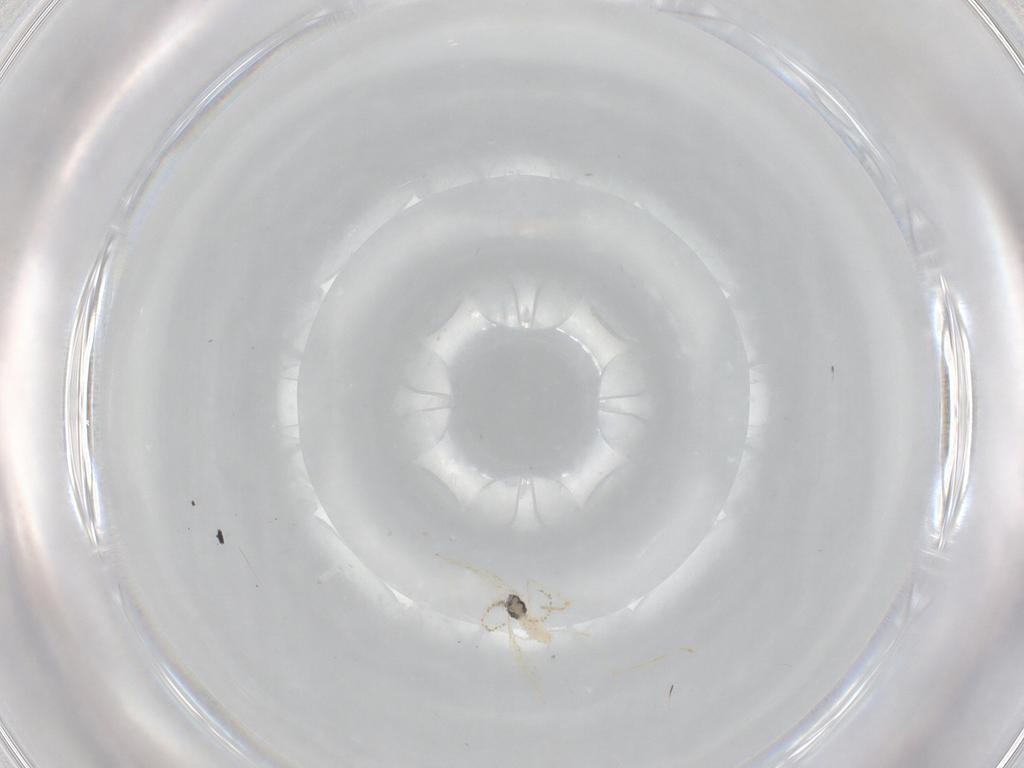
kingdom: Animalia
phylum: Arthropoda
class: Insecta
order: Diptera
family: Cecidomyiidae
